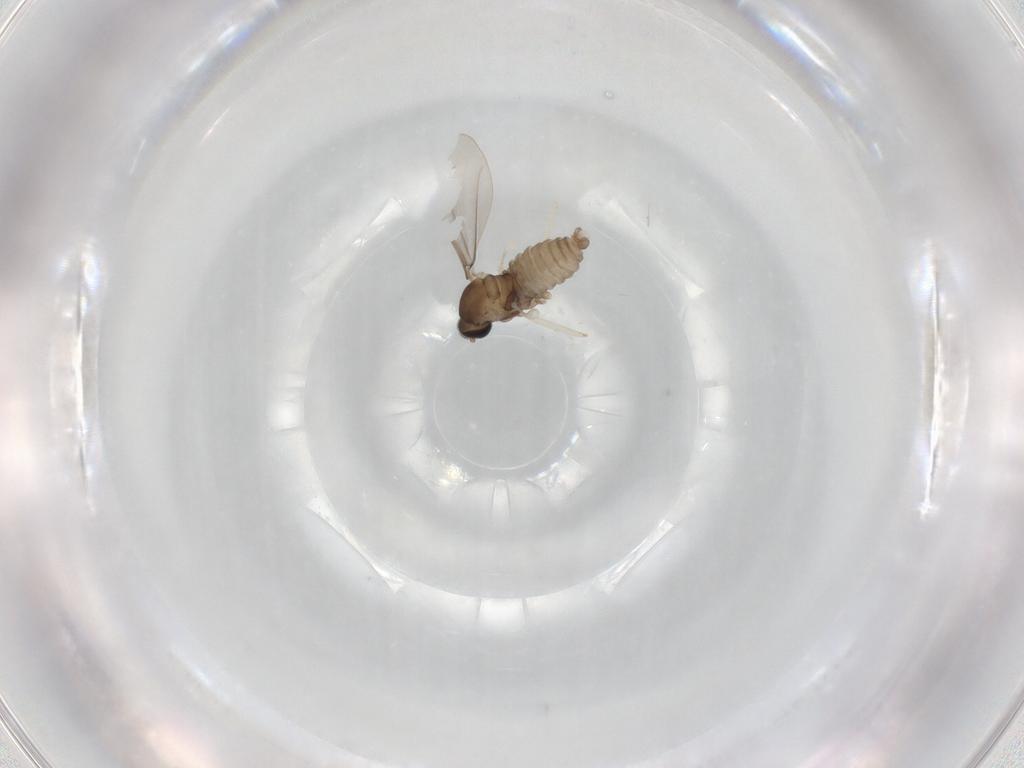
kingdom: Animalia
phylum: Arthropoda
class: Insecta
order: Diptera
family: Cecidomyiidae
